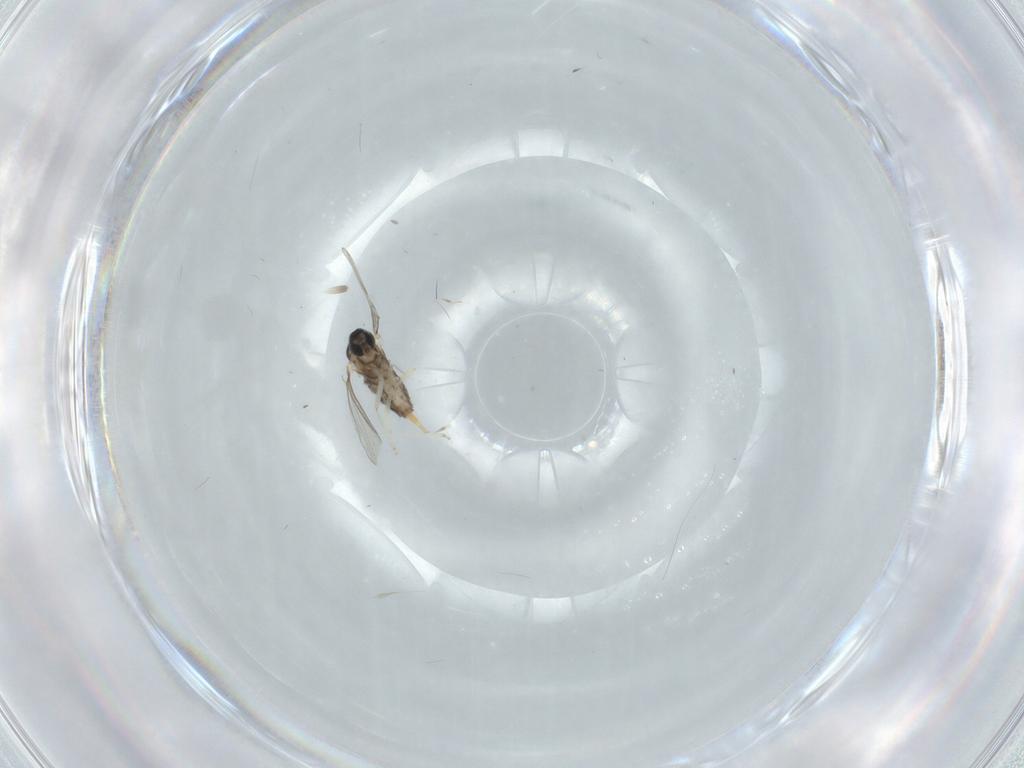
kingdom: Animalia
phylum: Arthropoda
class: Insecta
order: Diptera
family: Cecidomyiidae
